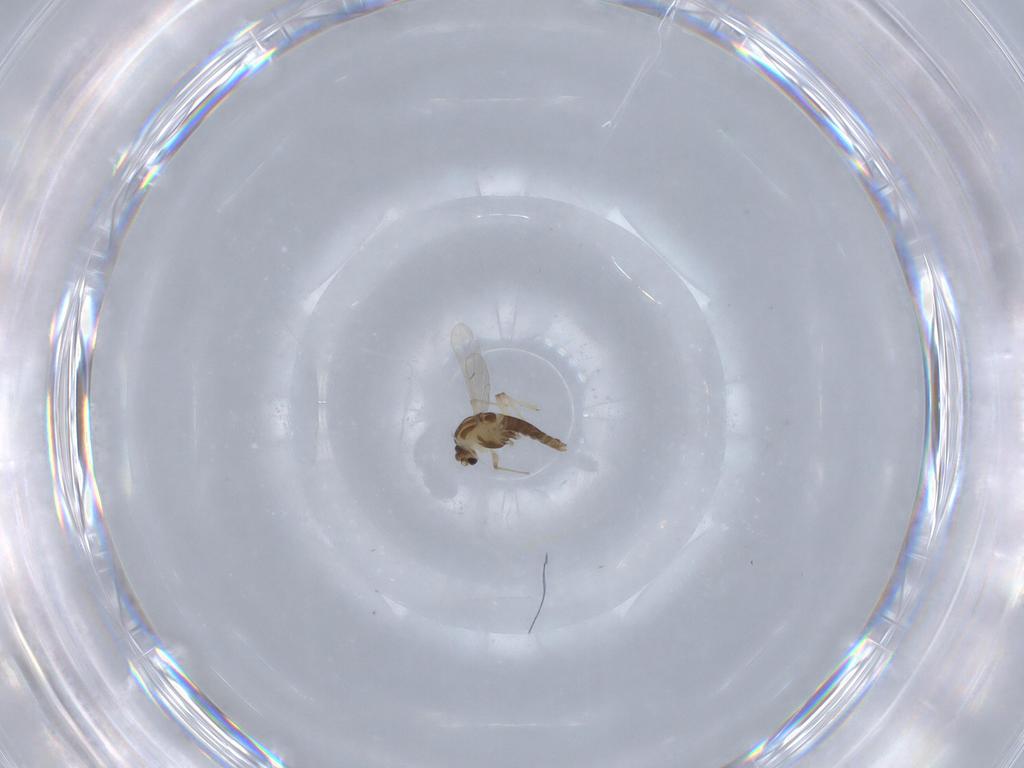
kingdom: Animalia
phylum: Arthropoda
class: Insecta
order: Diptera
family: Chironomidae
